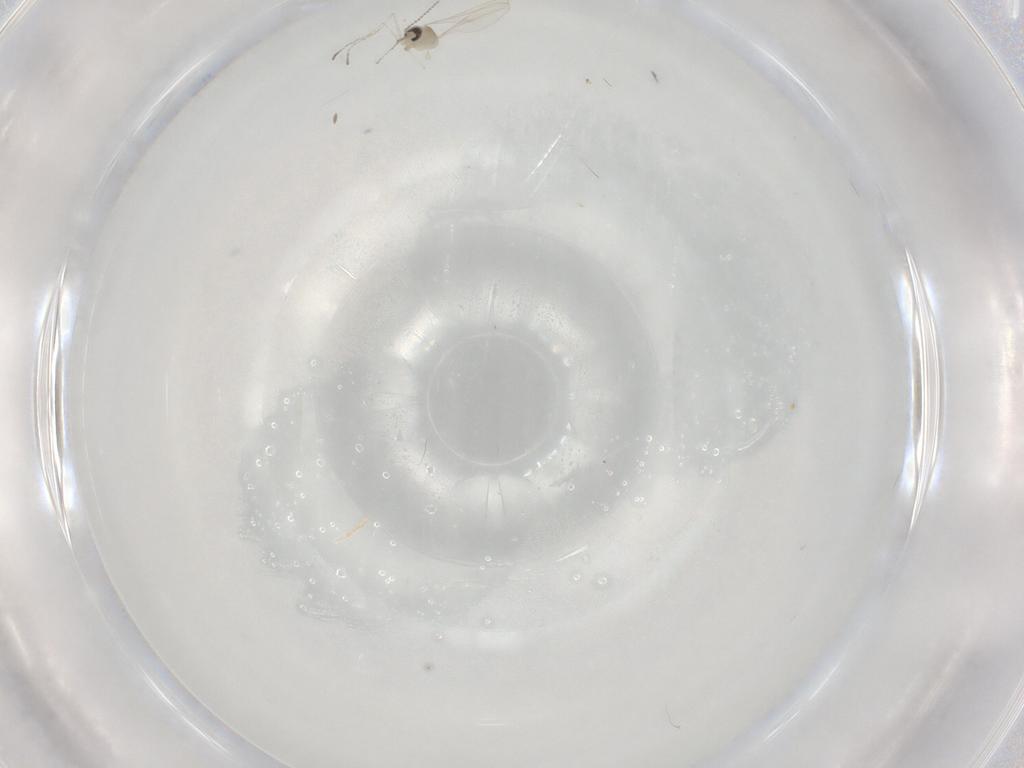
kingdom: Animalia
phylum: Arthropoda
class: Insecta
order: Diptera
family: Cecidomyiidae
